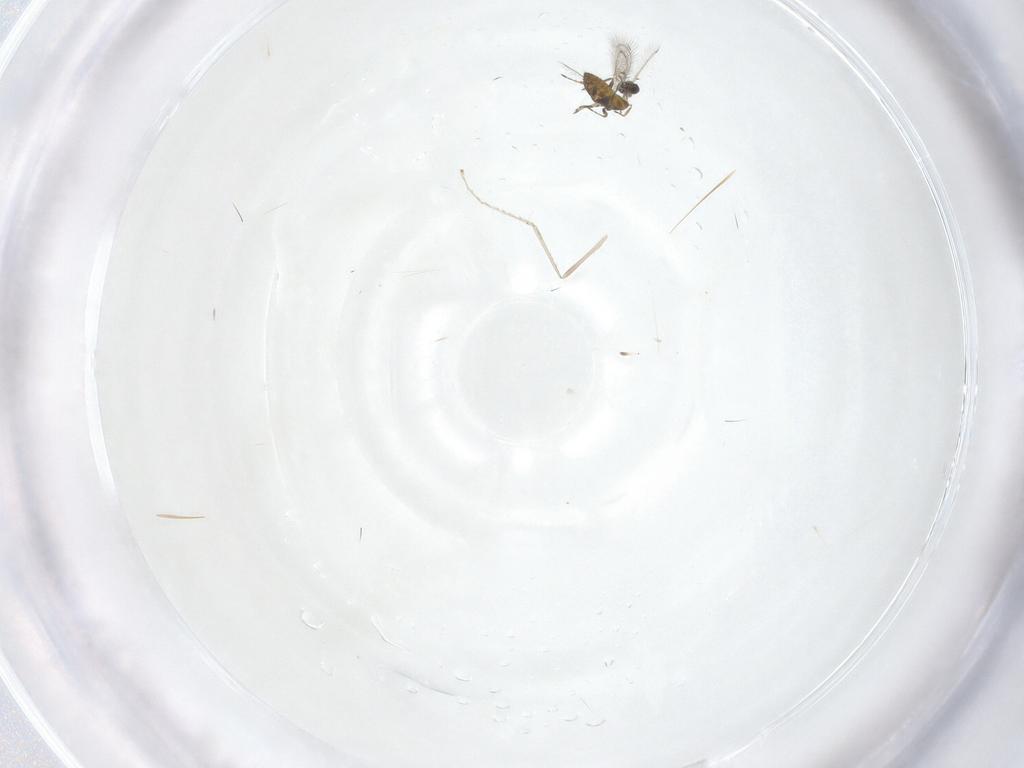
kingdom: Animalia
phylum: Arthropoda
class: Insecta
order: Hymenoptera
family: Trichogrammatidae
